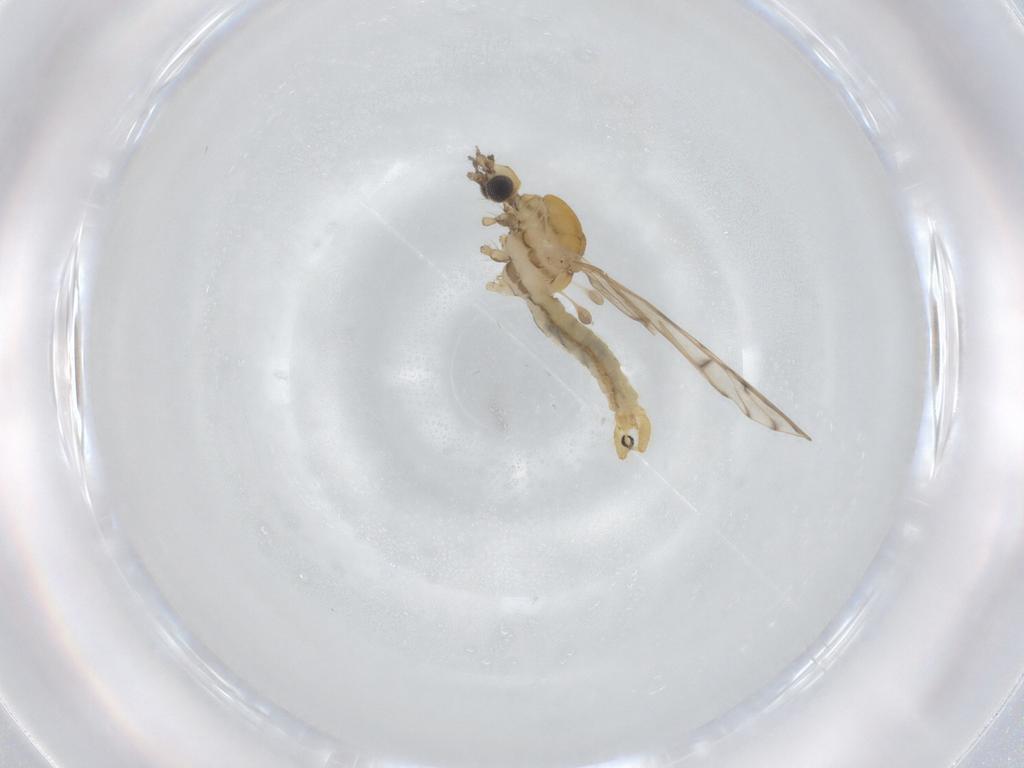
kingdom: Animalia
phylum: Arthropoda
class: Insecta
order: Diptera
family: Limoniidae
